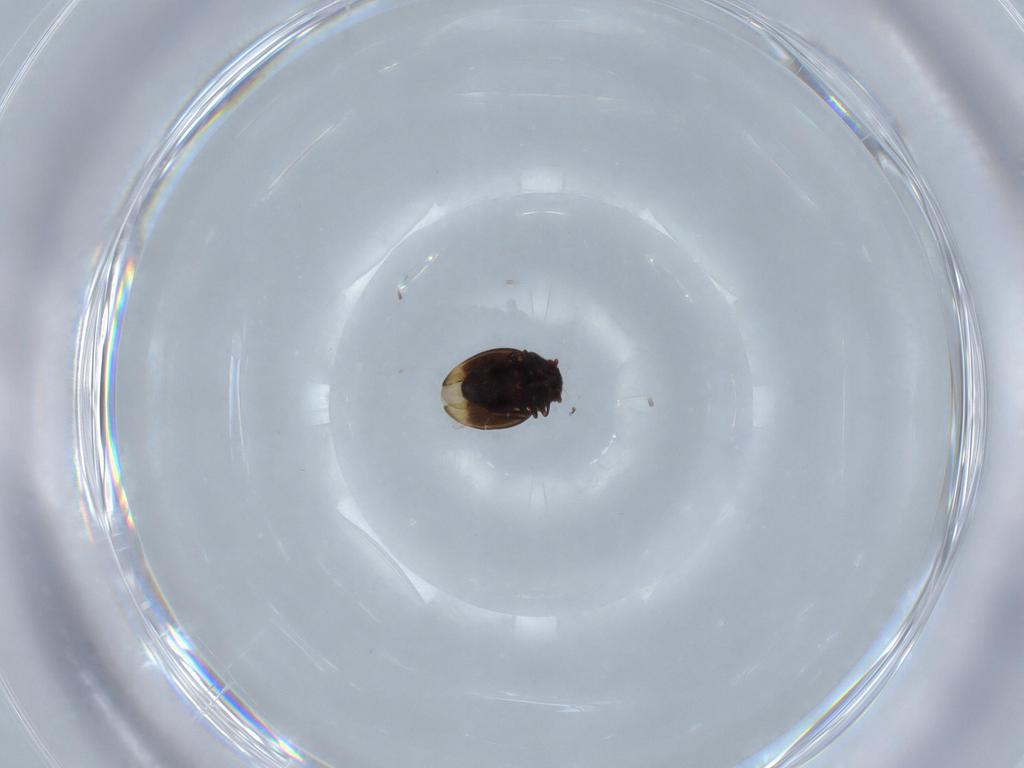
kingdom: Animalia
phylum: Arthropoda
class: Insecta
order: Hemiptera
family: Schizopteridae
